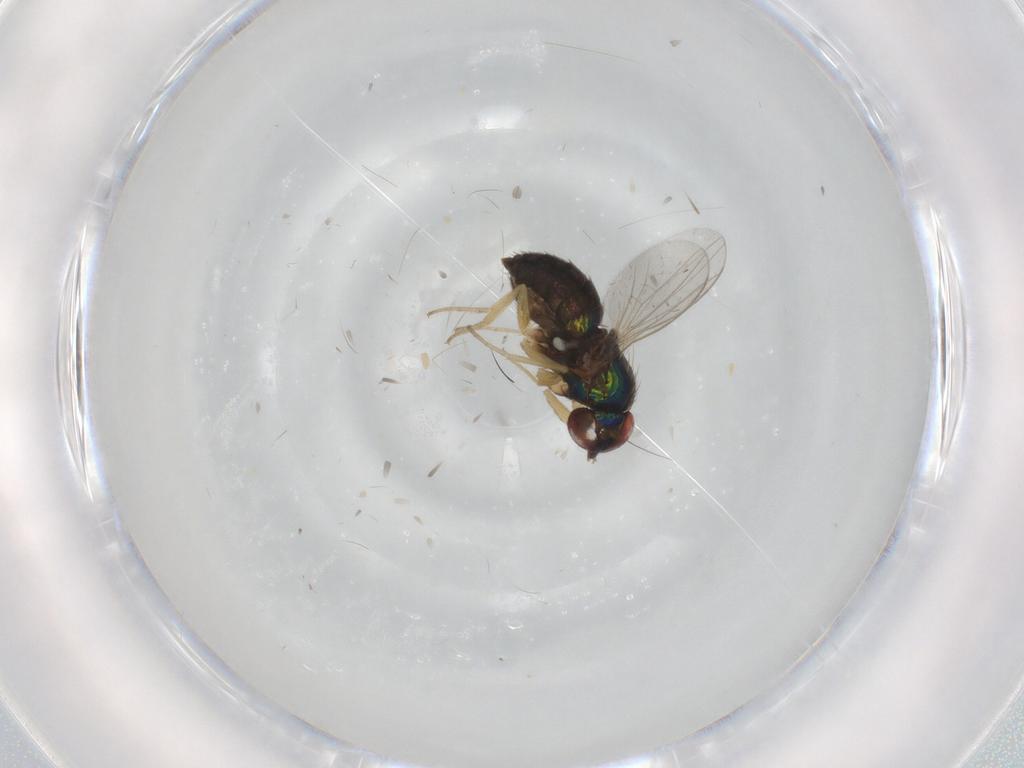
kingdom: Animalia
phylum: Arthropoda
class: Insecta
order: Diptera
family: Dolichopodidae
